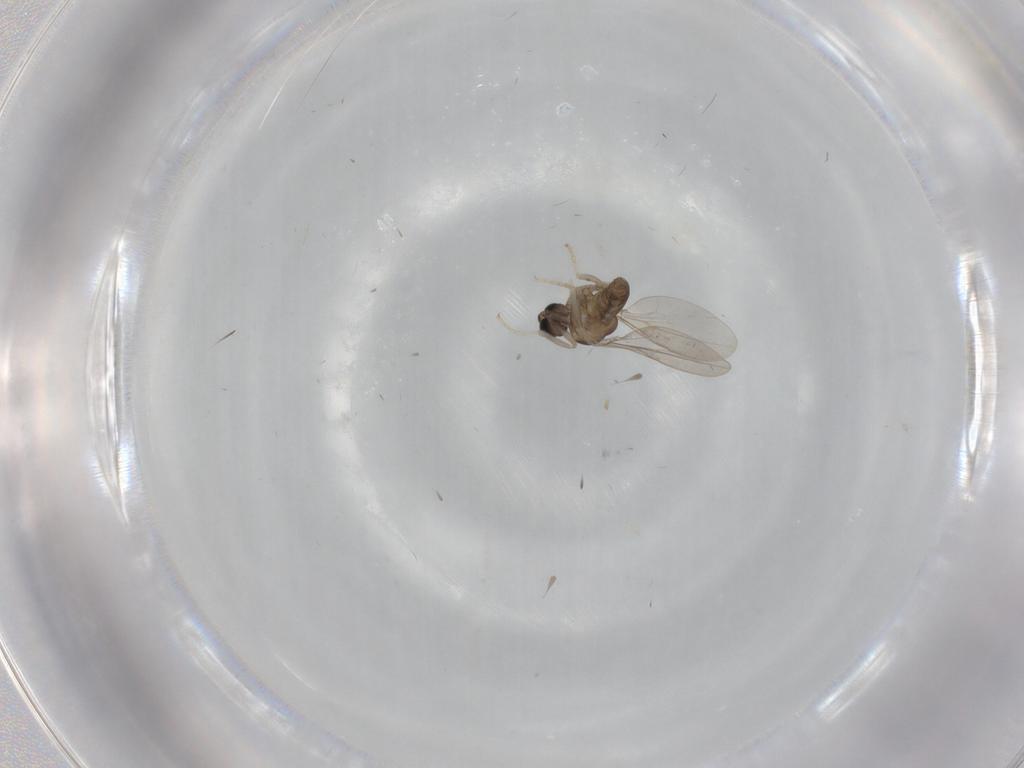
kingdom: Animalia
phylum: Arthropoda
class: Insecta
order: Diptera
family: Cecidomyiidae
